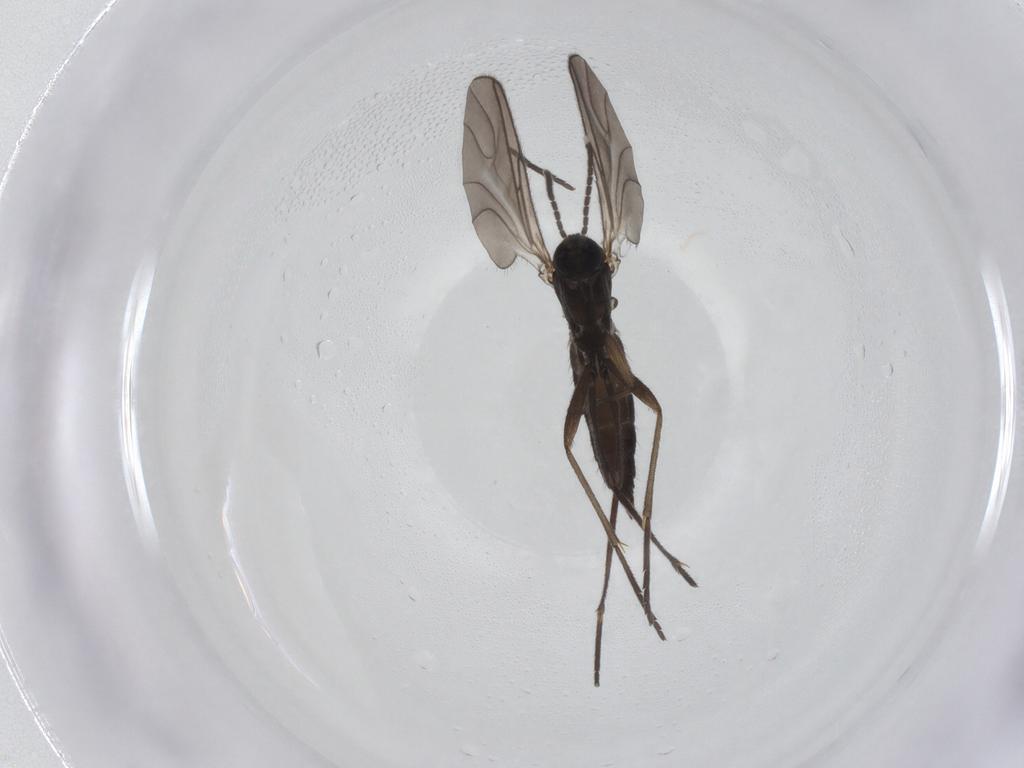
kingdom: Animalia
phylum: Arthropoda
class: Insecta
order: Diptera
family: Sciaridae
